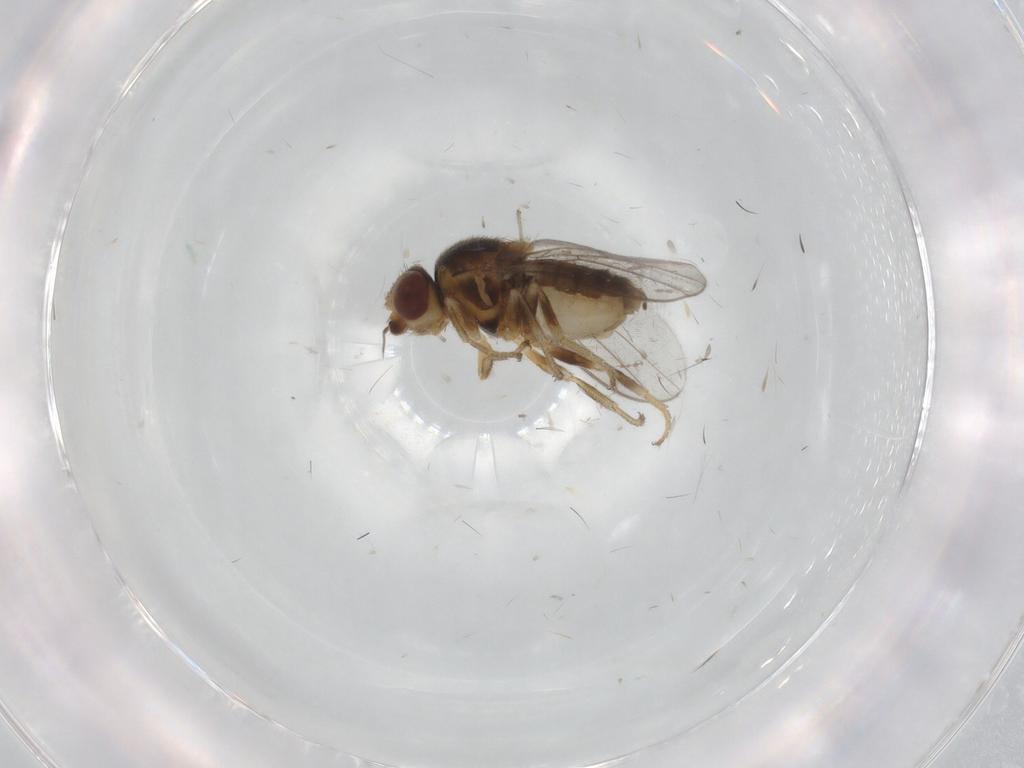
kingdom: Animalia
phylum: Arthropoda
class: Insecta
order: Diptera
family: Chloropidae
